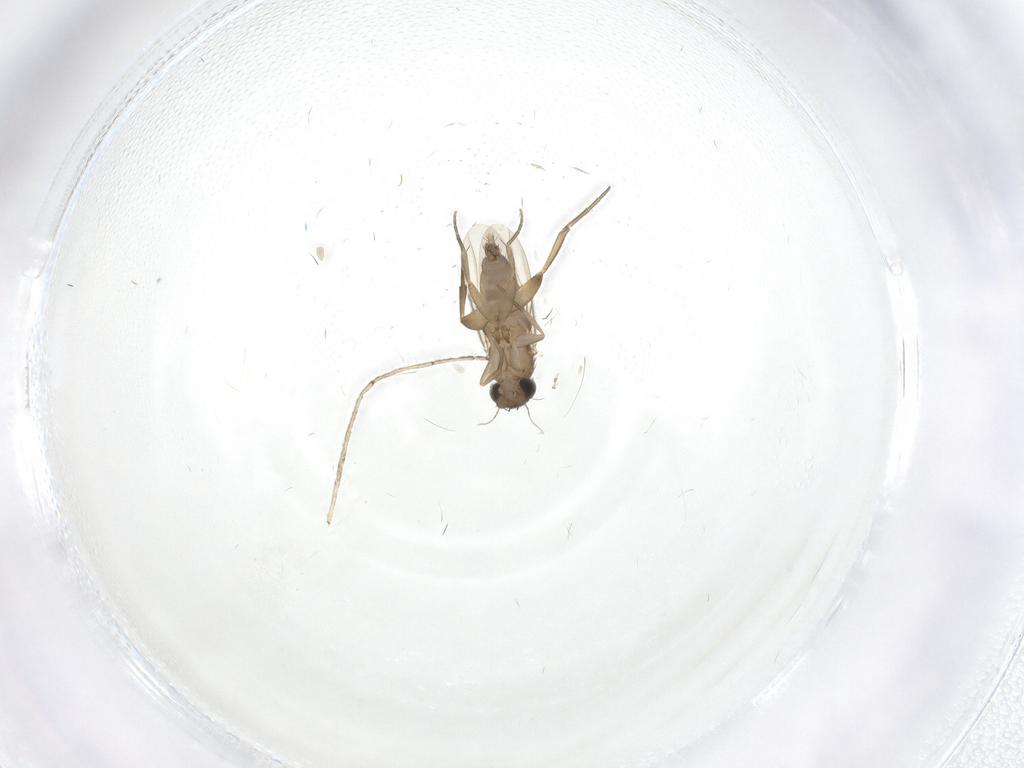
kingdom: Animalia
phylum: Arthropoda
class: Insecta
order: Diptera
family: Phoridae
